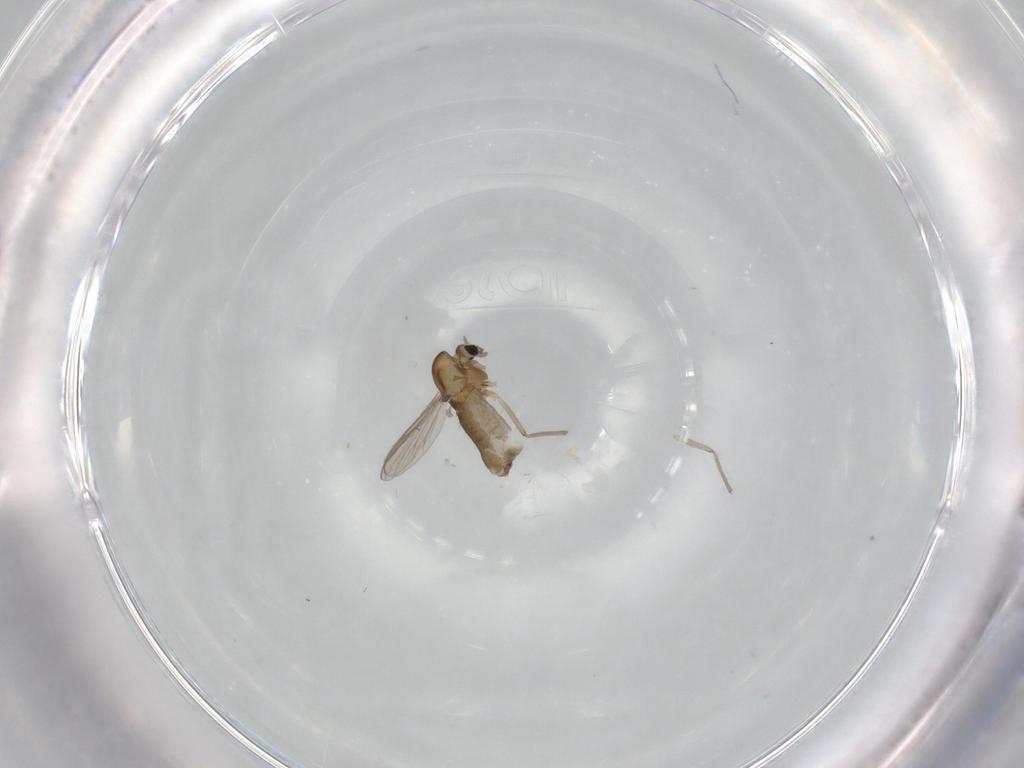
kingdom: Animalia
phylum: Arthropoda
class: Insecta
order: Diptera
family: Chironomidae
